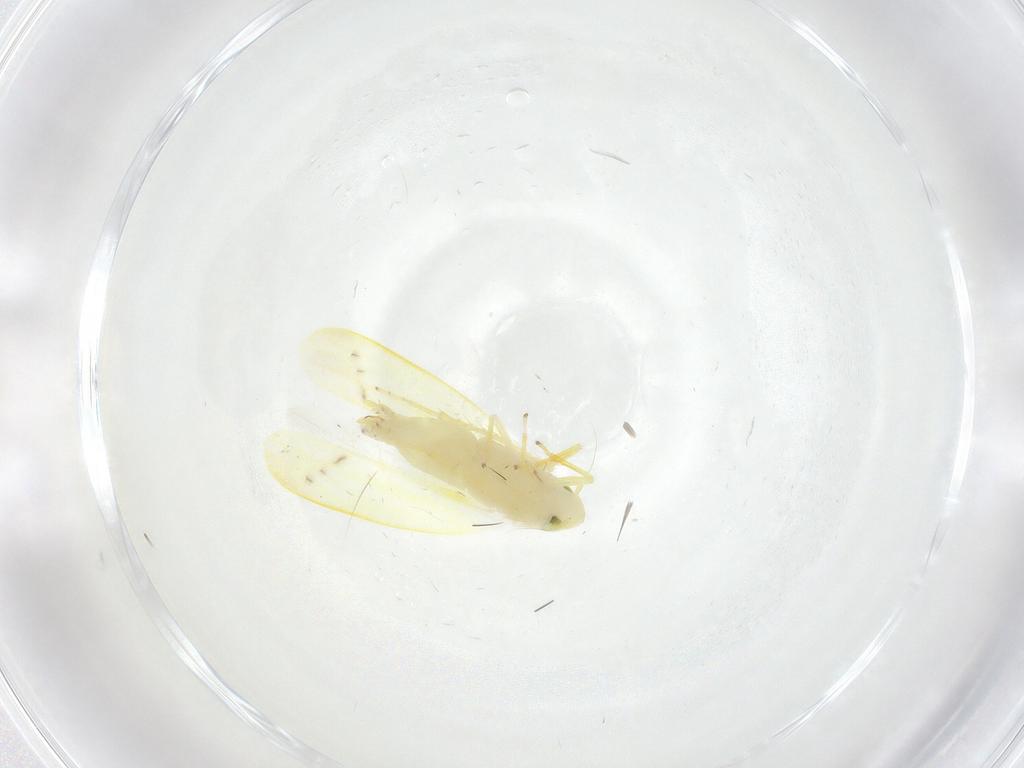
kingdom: Animalia
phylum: Arthropoda
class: Insecta
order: Hemiptera
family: Cicadellidae
